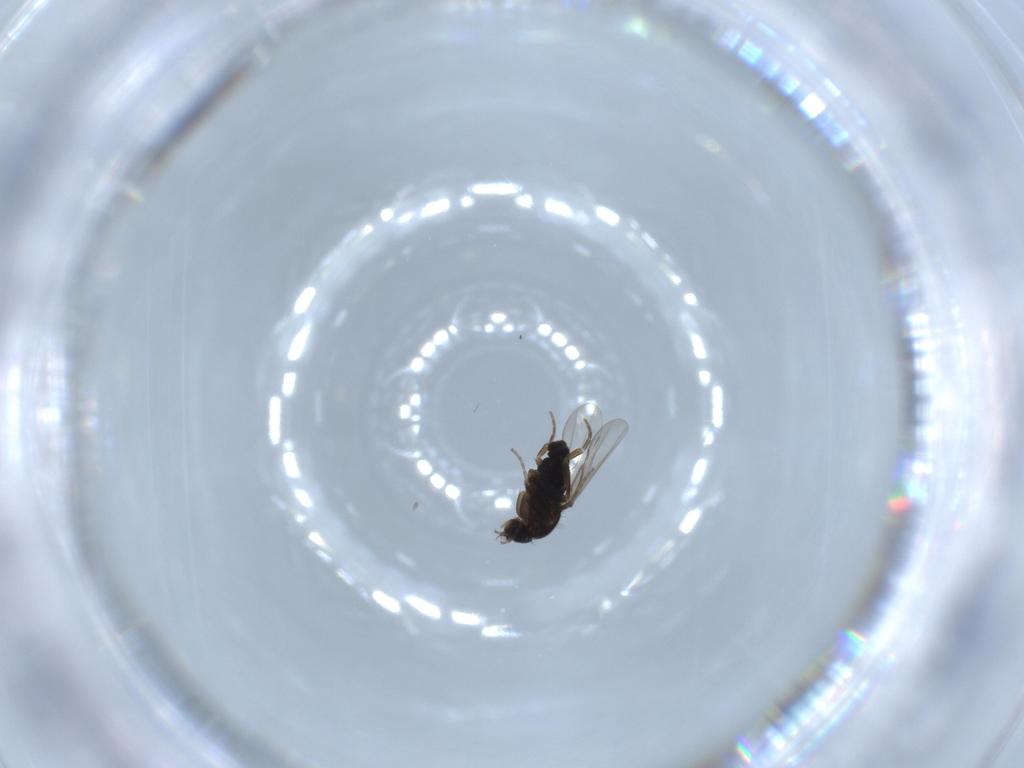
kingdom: Animalia
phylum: Arthropoda
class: Insecta
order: Diptera
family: Phoridae
